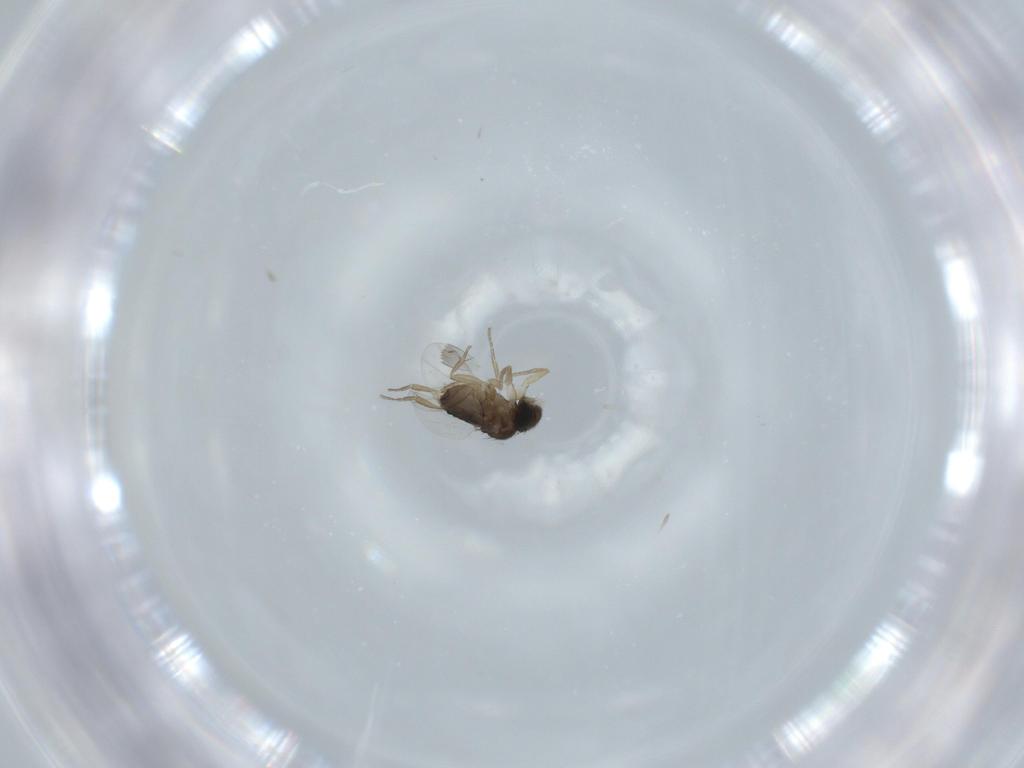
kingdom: Animalia
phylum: Arthropoda
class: Insecta
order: Diptera
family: Phoridae
